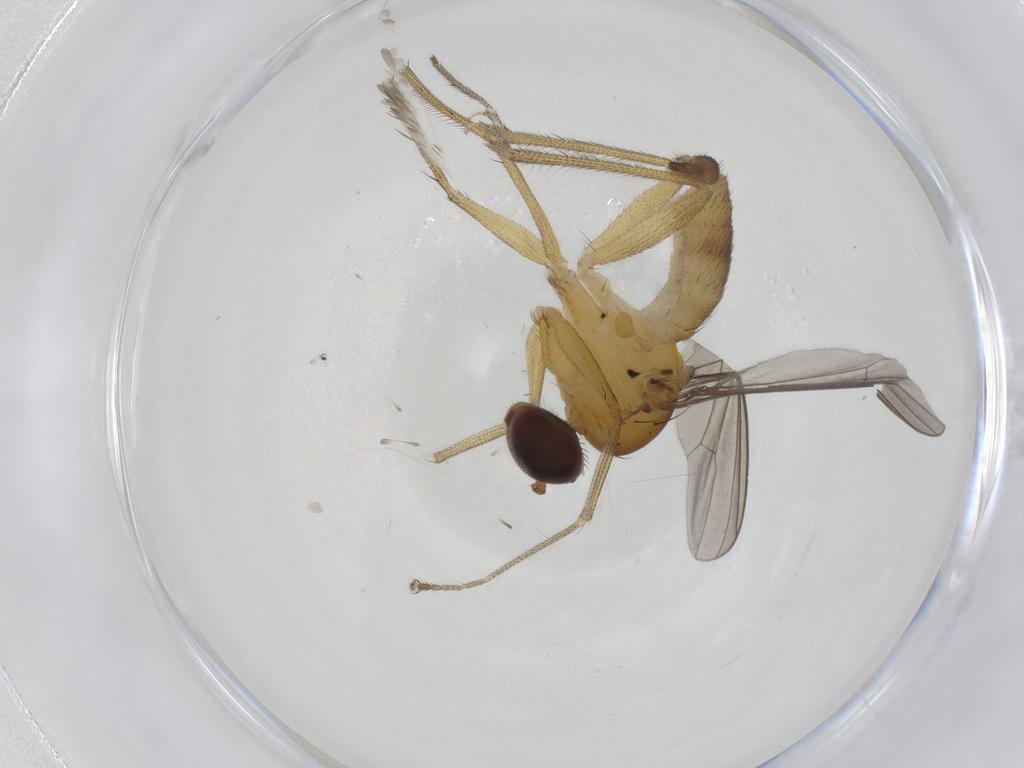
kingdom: Animalia
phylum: Arthropoda
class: Insecta
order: Diptera
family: Dolichopodidae
